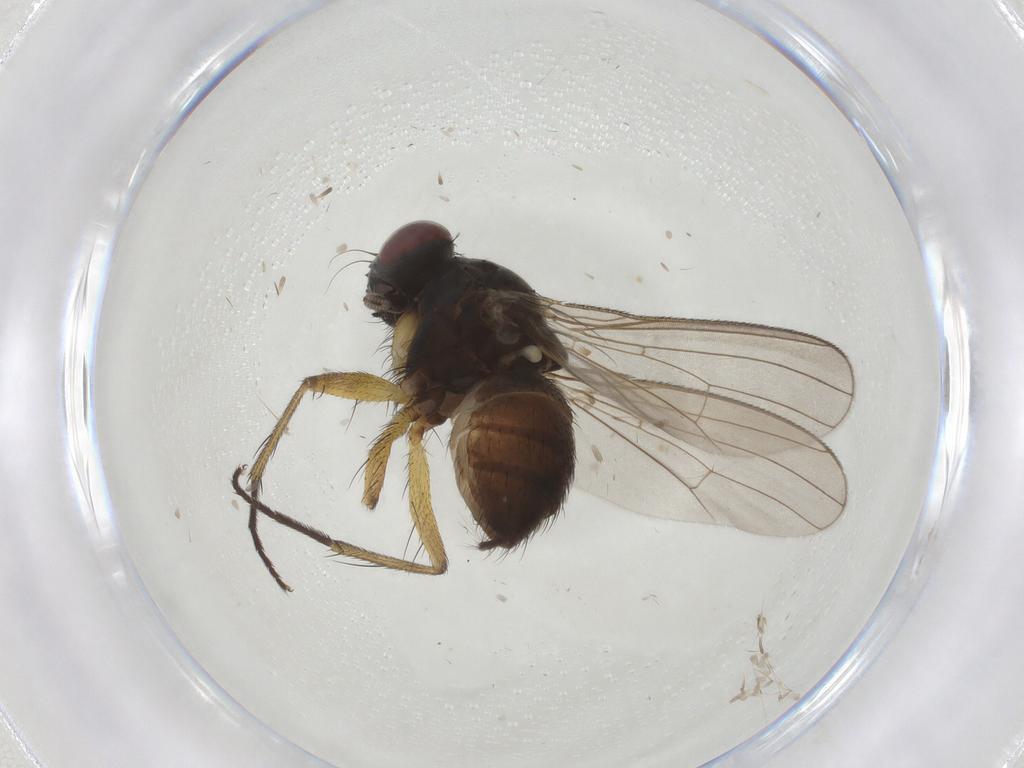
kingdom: Animalia
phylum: Arthropoda
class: Insecta
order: Diptera
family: Muscidae
